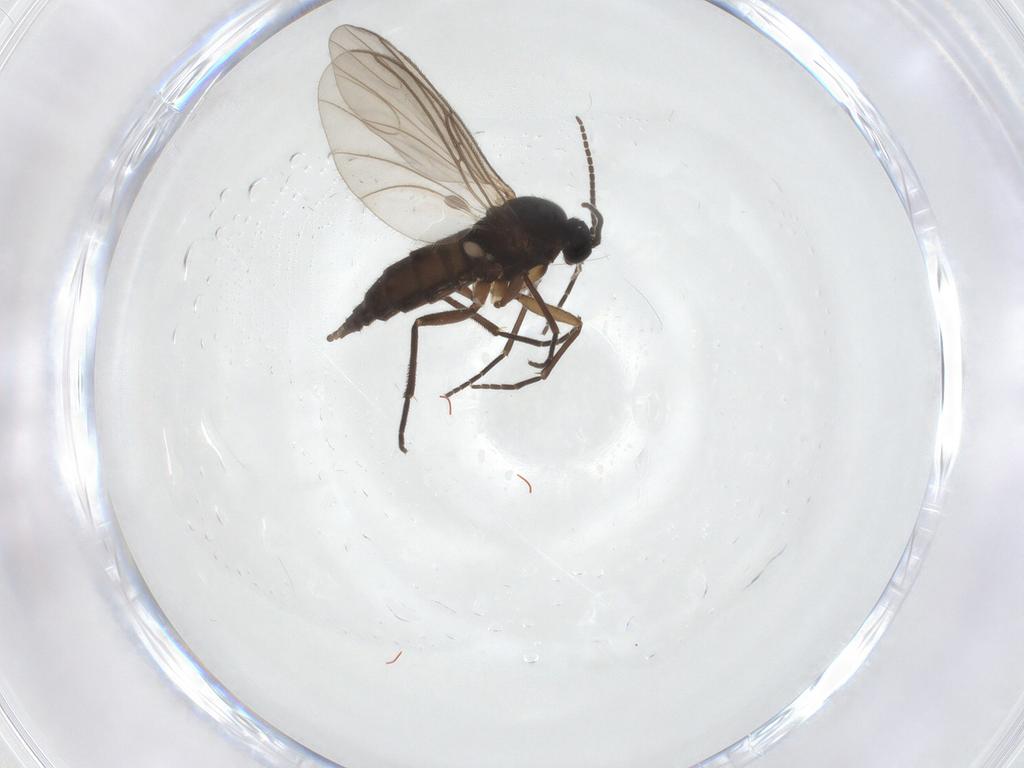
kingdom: Animalia
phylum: Arthropoda
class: Insecta
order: Diptera
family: Sciaridae
